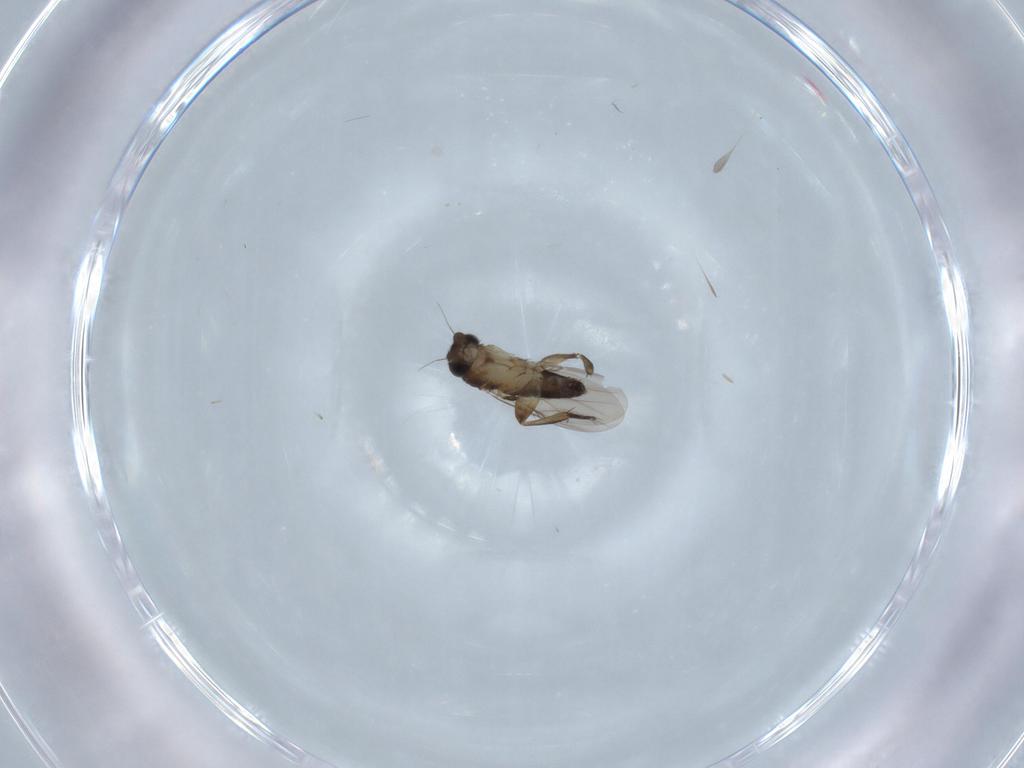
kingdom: Animalia
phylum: Arthropoda
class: Insecta
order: Diptera
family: Phoridae
